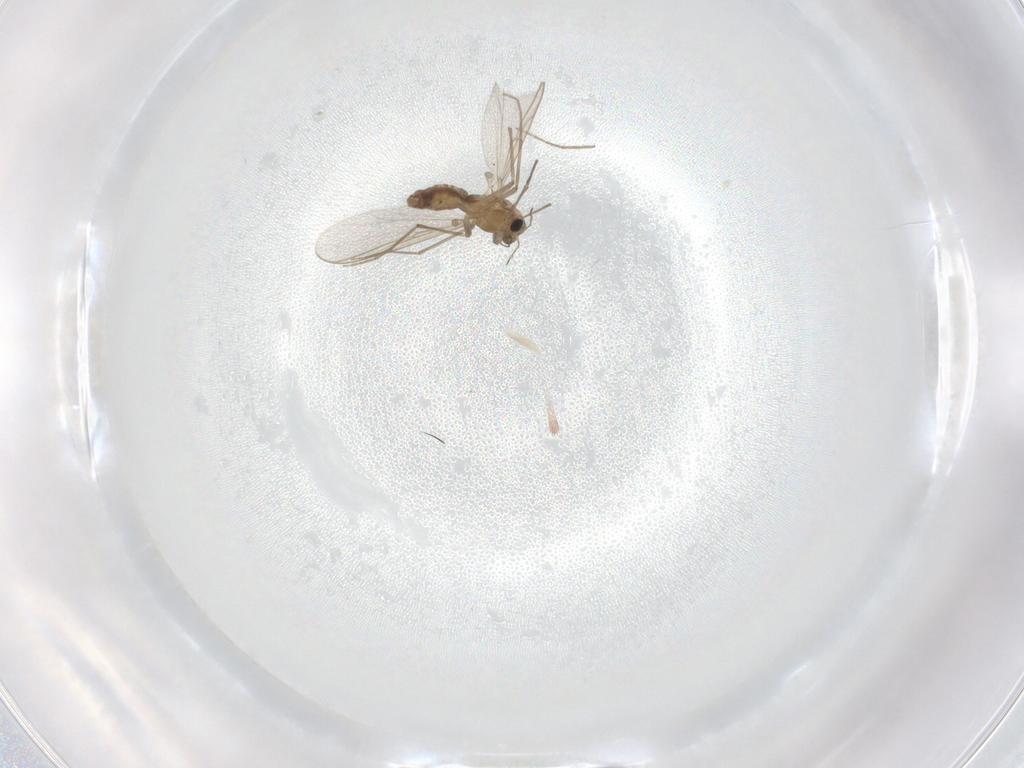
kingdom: Animalia
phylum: Arthropoda
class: Insecta
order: Diptera
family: Chironomidae
